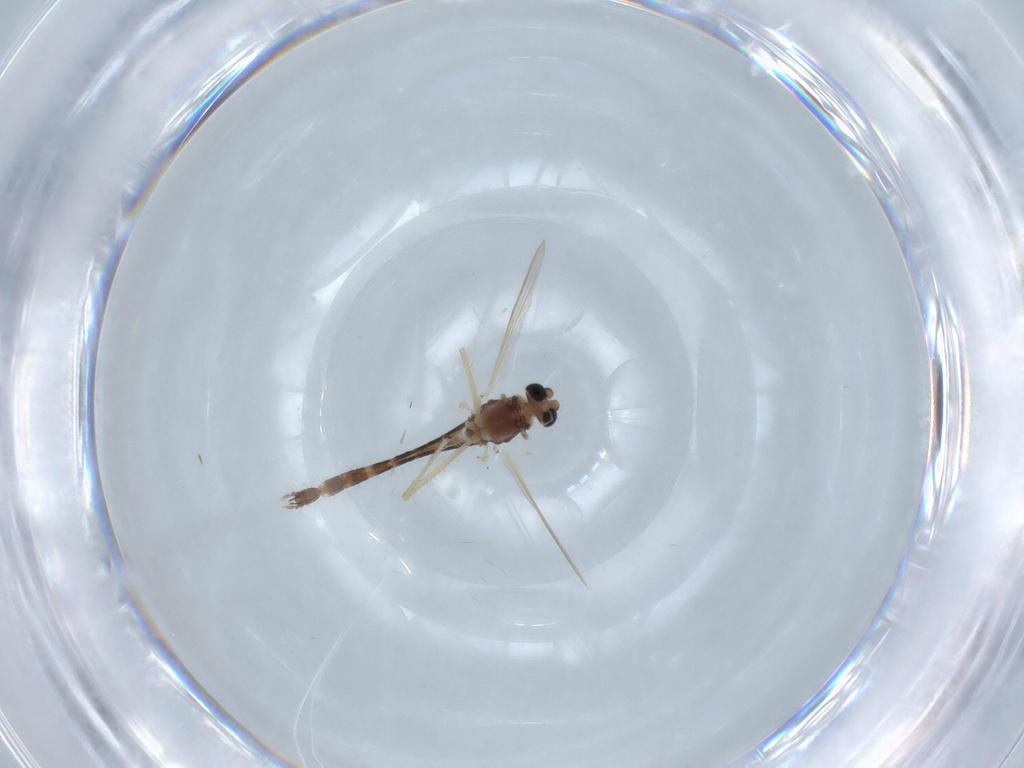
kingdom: Animalia
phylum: Arthropoda
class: Insecta
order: Diptera
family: Chironomidae
